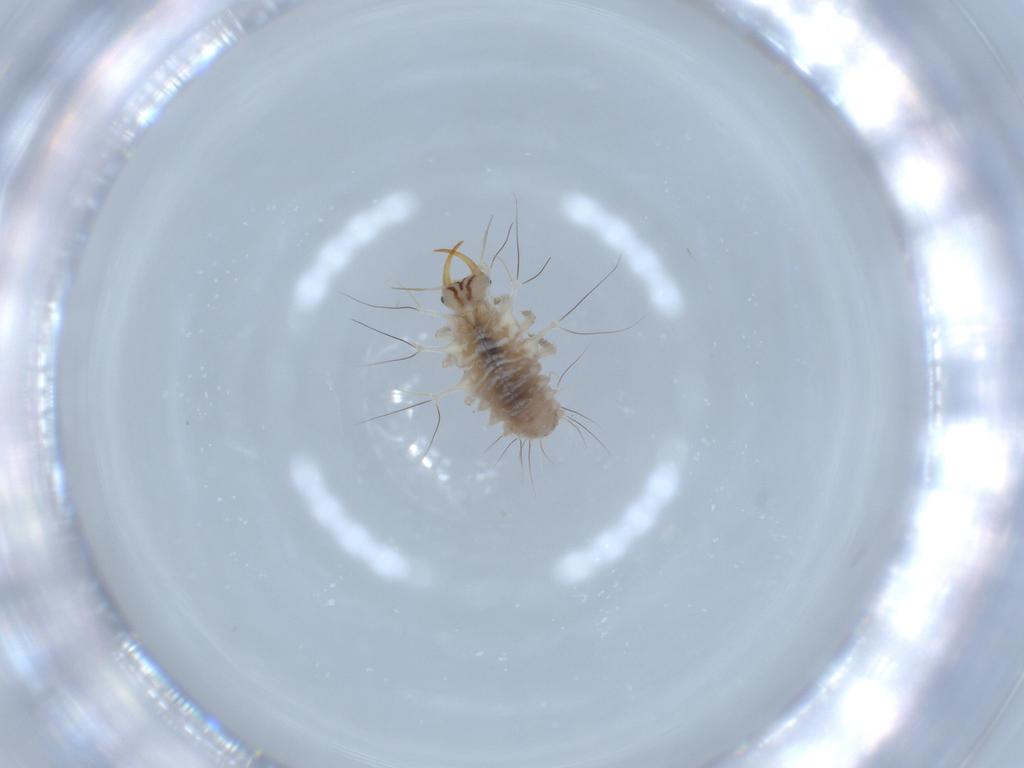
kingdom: Animalia
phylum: Arthropoda
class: Insecta
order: Neuroptera
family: Chrysopidae
